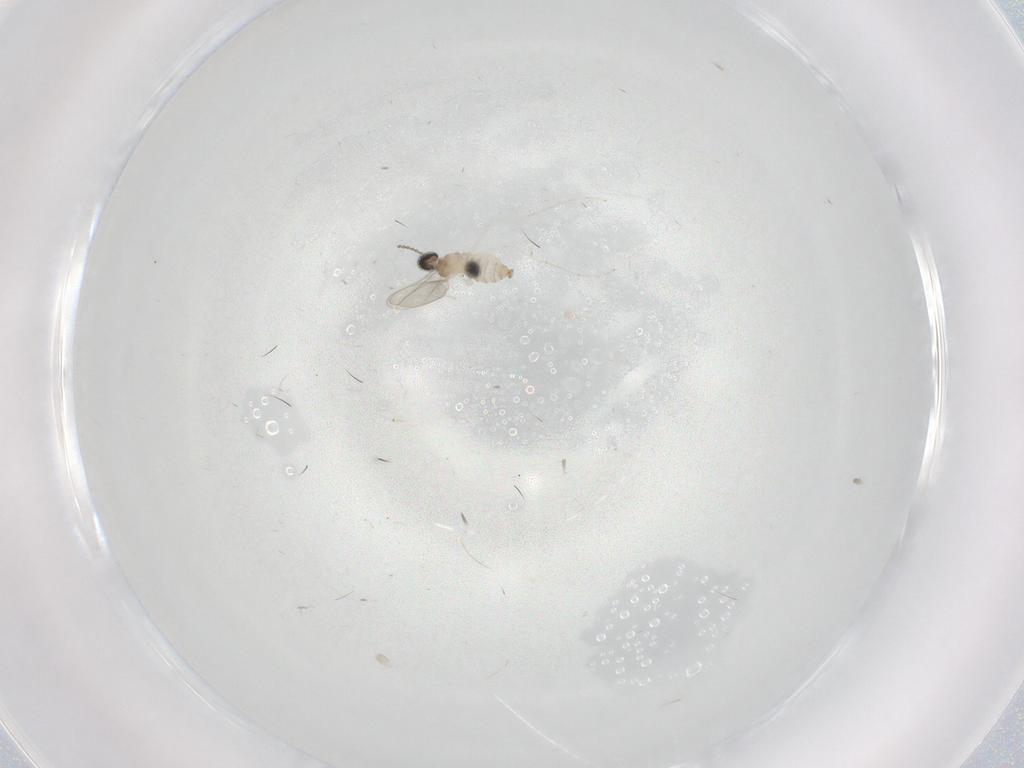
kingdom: Animalia
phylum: Arthropoda
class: Insecta
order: Diptera
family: Cecidomyiidae
